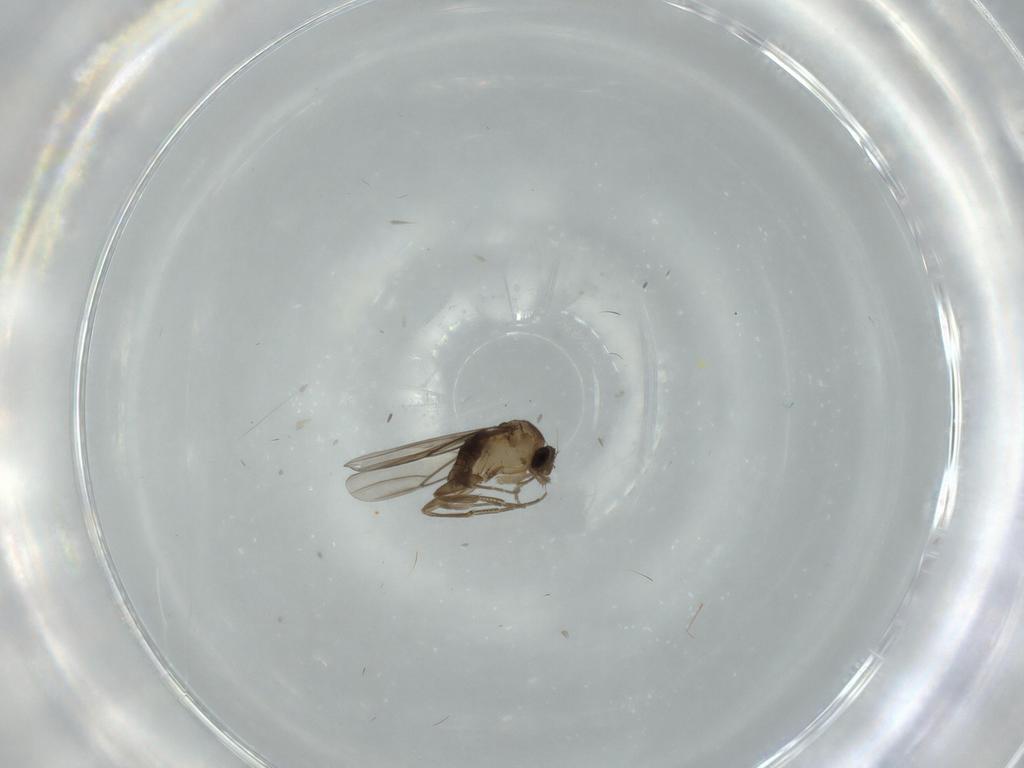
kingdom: Animalia
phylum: Arthropoda
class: Insecta
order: Diptera
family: Phoridae
